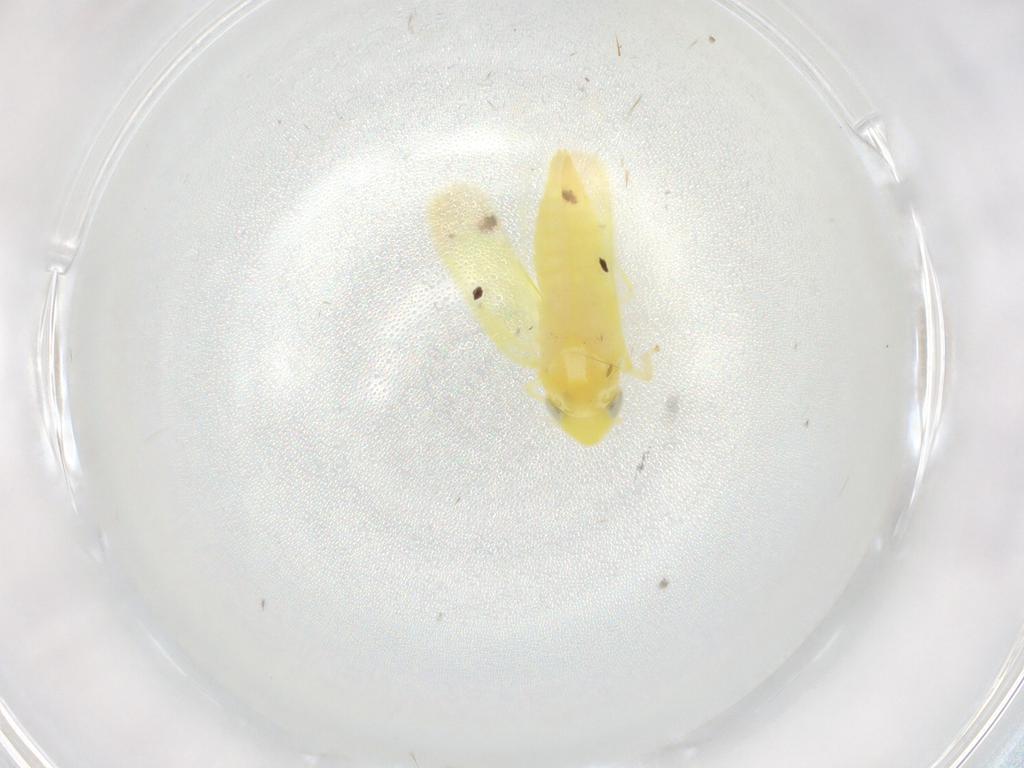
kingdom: Animalia
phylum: Arthropoda
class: Insecta
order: Hemiptera
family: Cicadellidae
